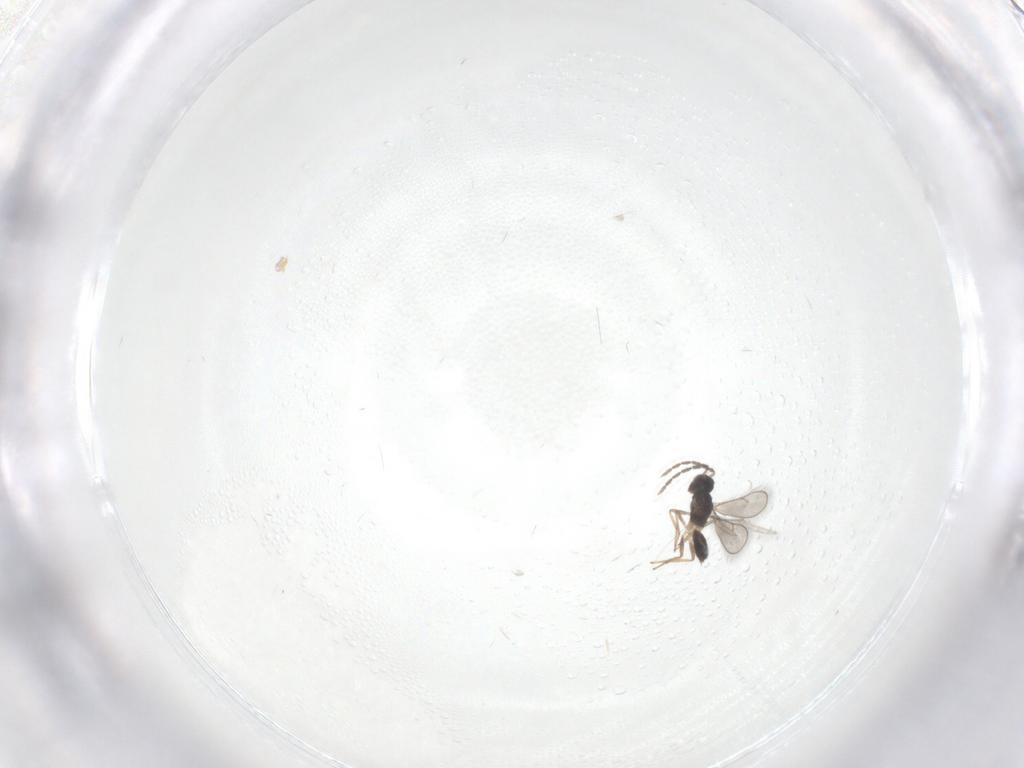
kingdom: Animalia
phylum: Arthropoda
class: Insecta
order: Hymenoptera
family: Eulophidae
